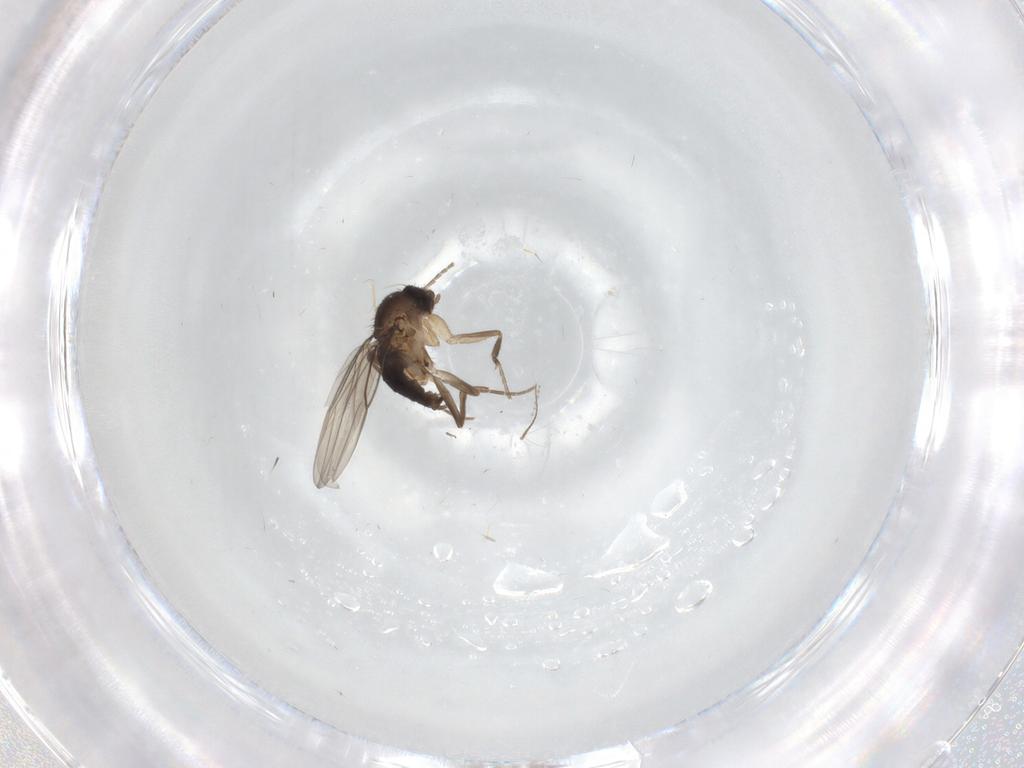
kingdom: Animalia
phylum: Arthropoda
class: Insecta
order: Diptera
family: Phoridae
